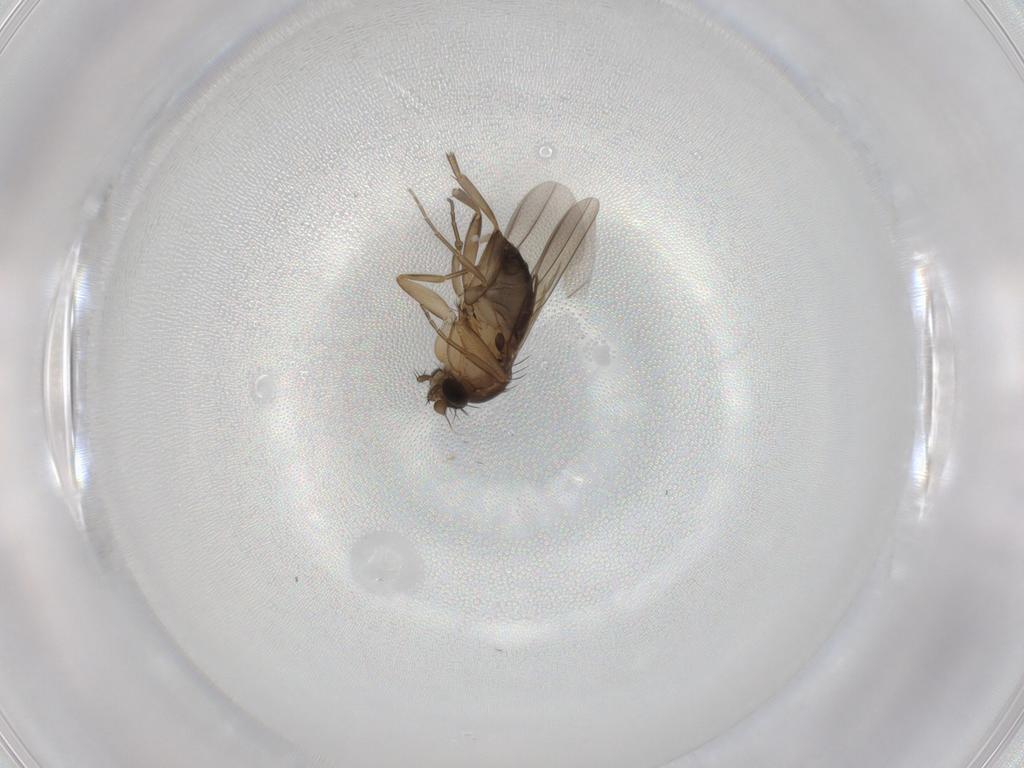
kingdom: Animalia
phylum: Arthropoda
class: Insecta
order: Diptera
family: Phoridae
